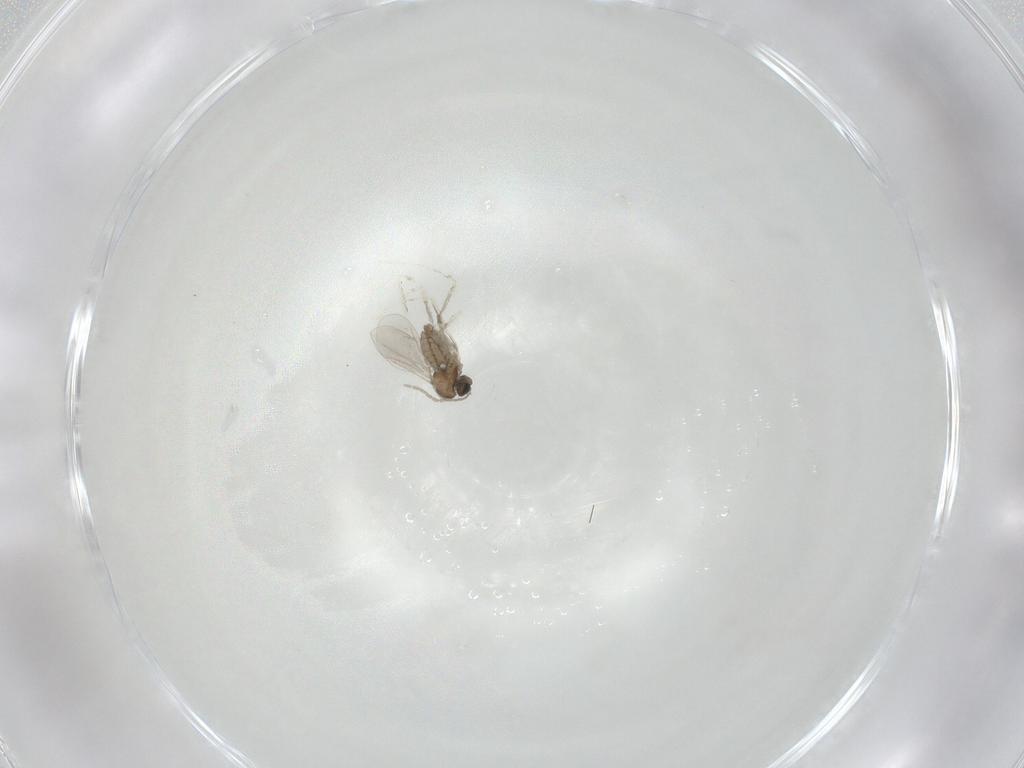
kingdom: Animalia
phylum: Arthropoda
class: Insecta
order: Diptera
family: Cecidomyiidae
